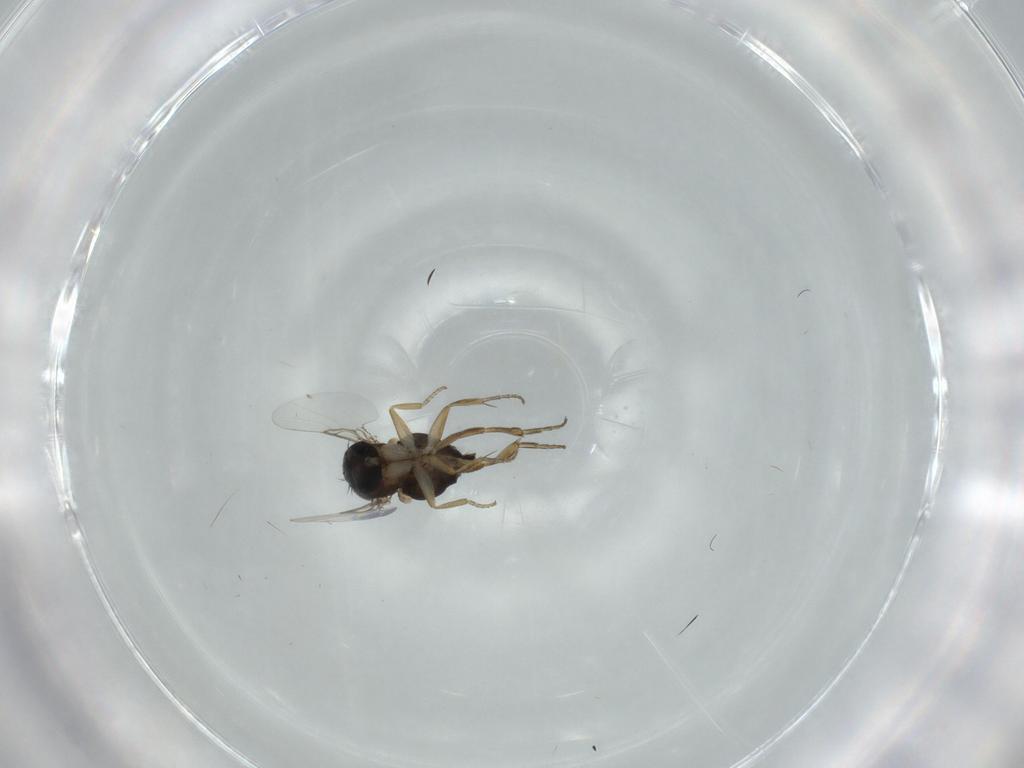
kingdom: Animalia
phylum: Arthropoda
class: Insecta
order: Diptera
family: Phoridae
